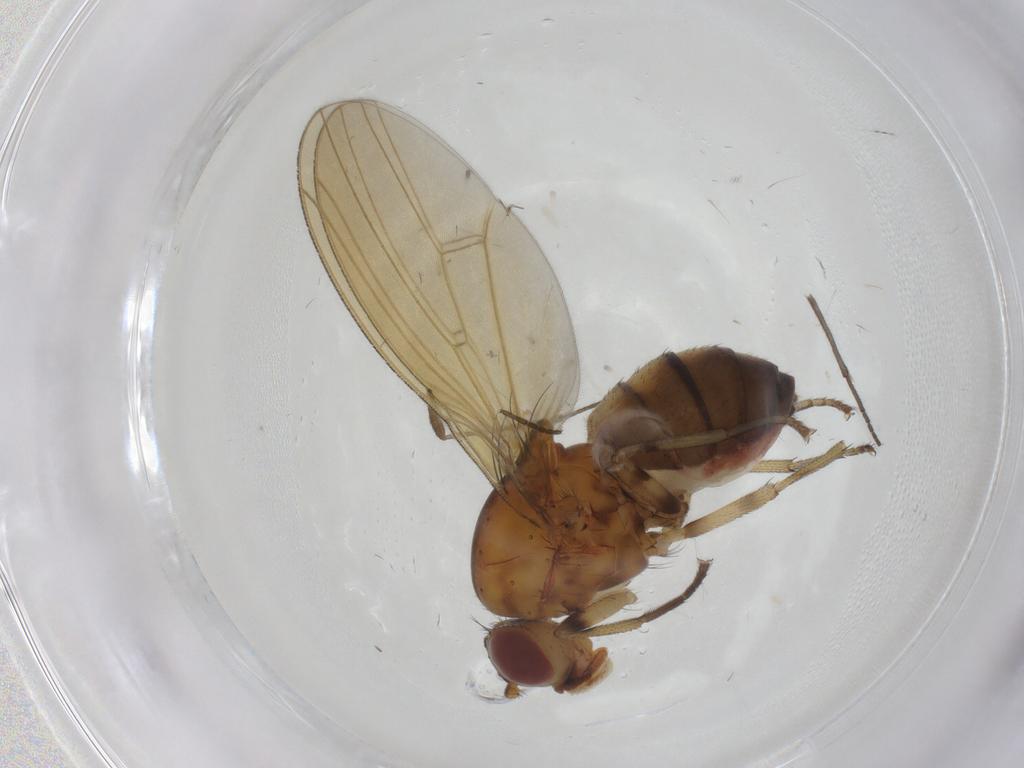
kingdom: Animalia
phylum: Arthropoda
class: Insecta
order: Diptera
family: Lauxaniidae
